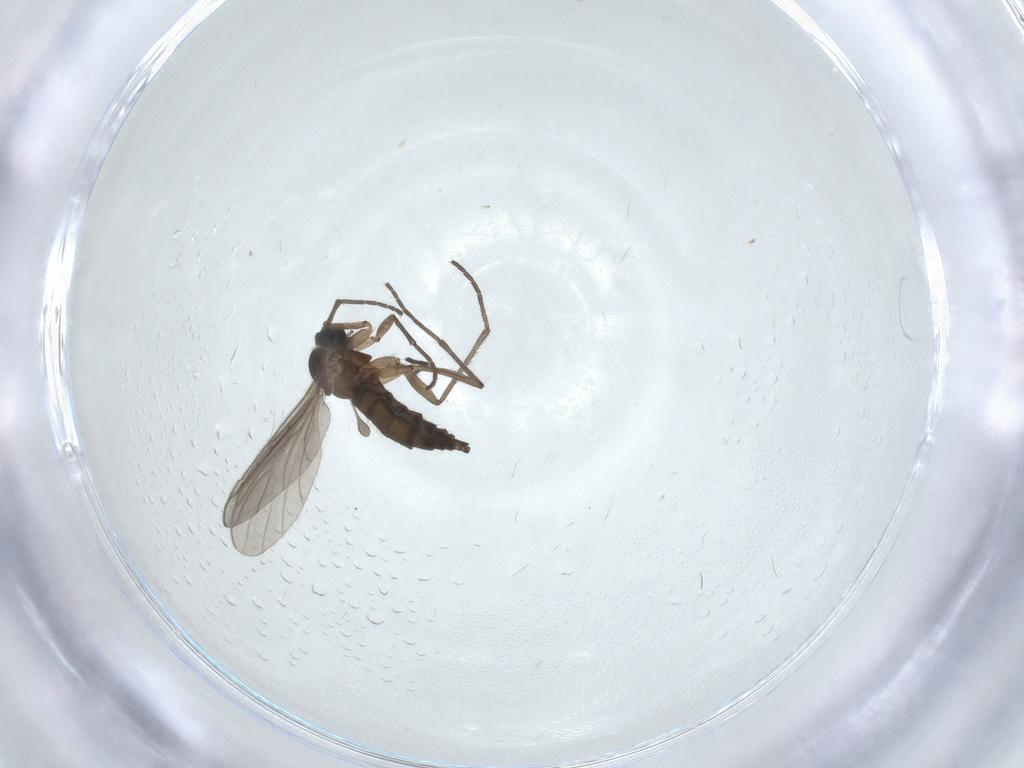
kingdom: Animalia
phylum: Arthropoda
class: Insecta
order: Diptera
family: Sciaridae
